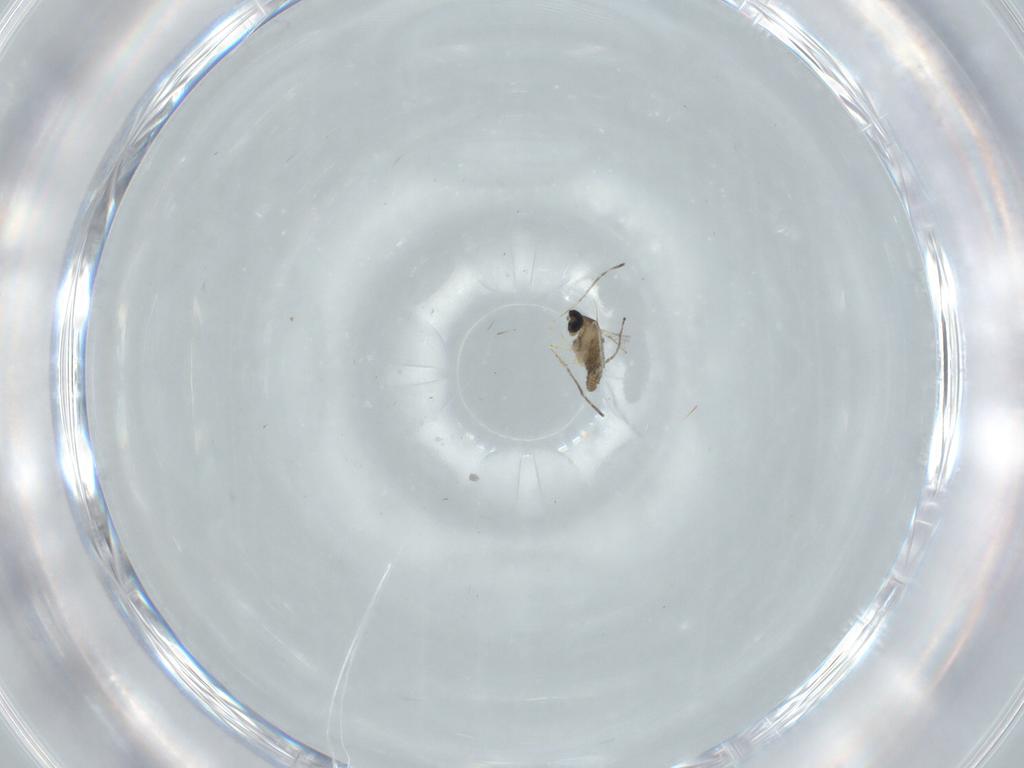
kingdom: Animalia
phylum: Arthropoda
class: Insecta
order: Diptera
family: Cecidomyiidae
